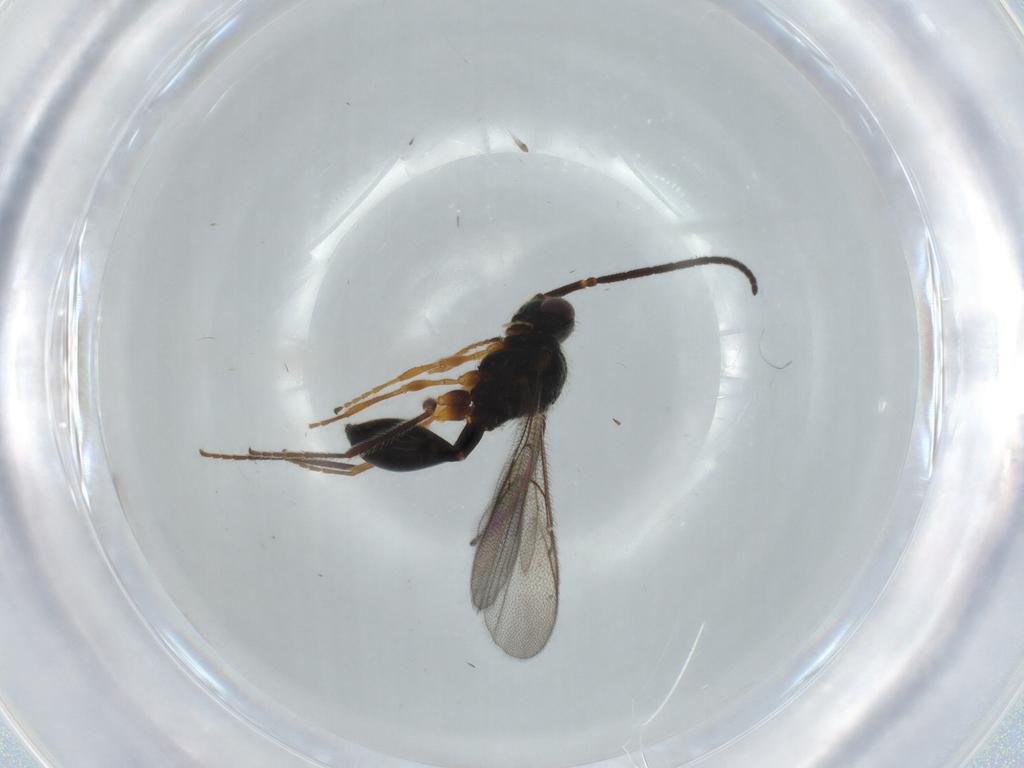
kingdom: Animalia
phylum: Arthropoda
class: Insecta
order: Hymenoptera
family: Diapriidae
